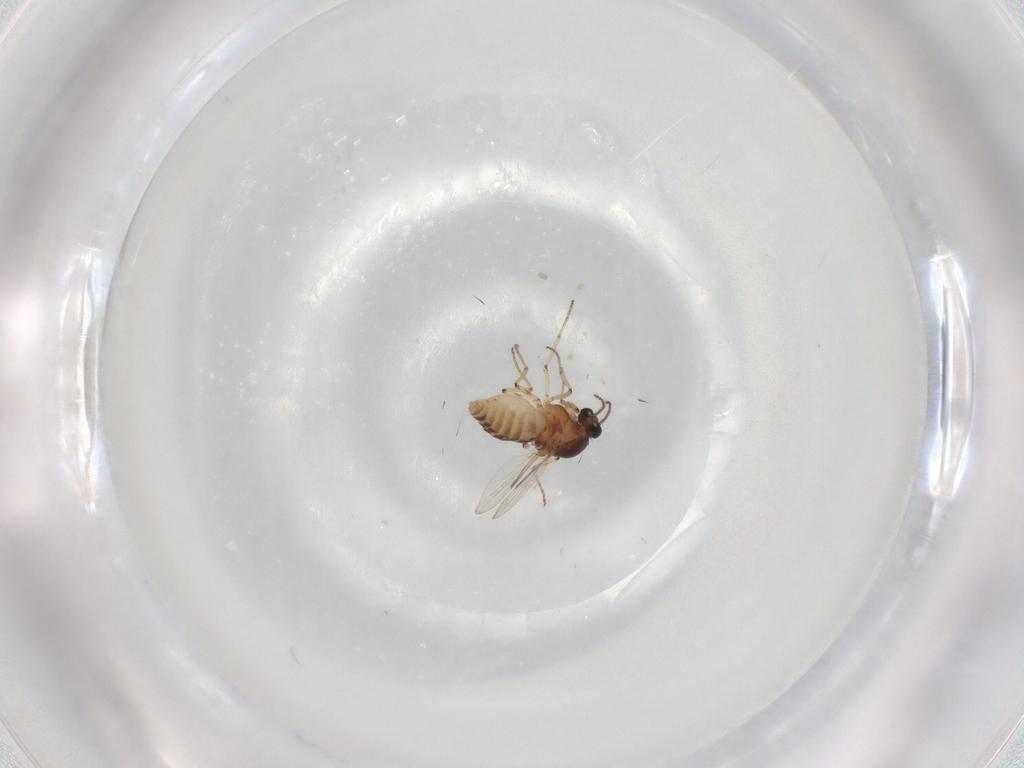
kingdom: Animalia
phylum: Arthropoda
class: Insecta
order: Diptera
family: Ceratopogonidae
